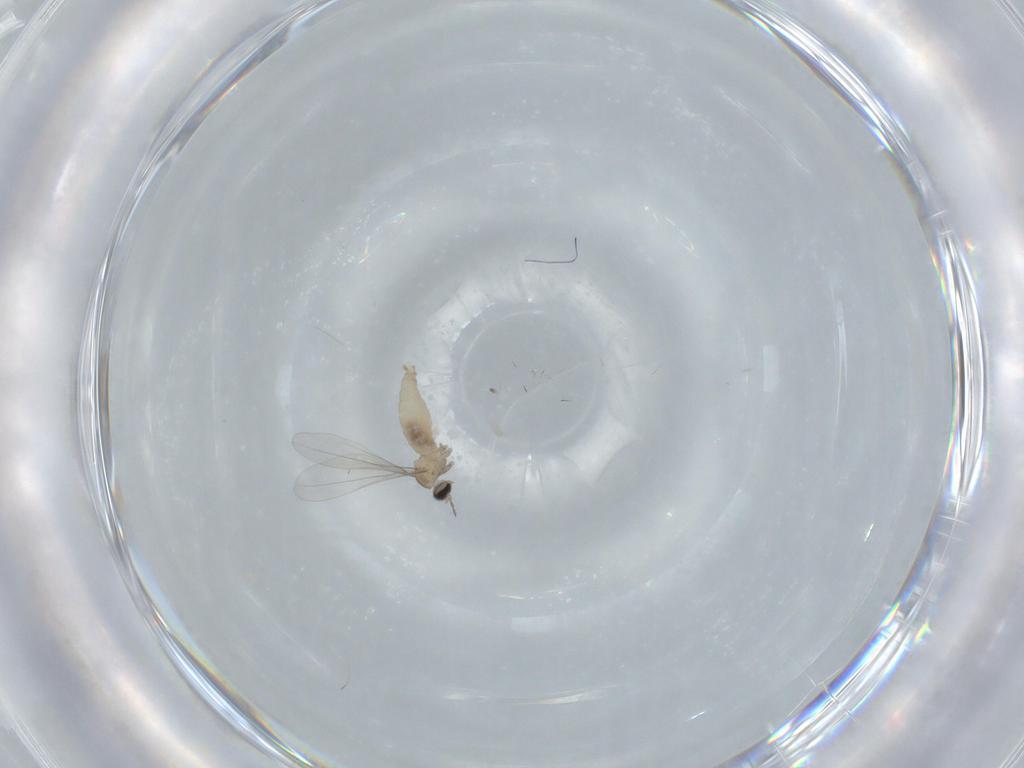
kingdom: Animalia
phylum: Arthropoda
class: Insecta
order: Diptera
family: Cecidomyiidae
